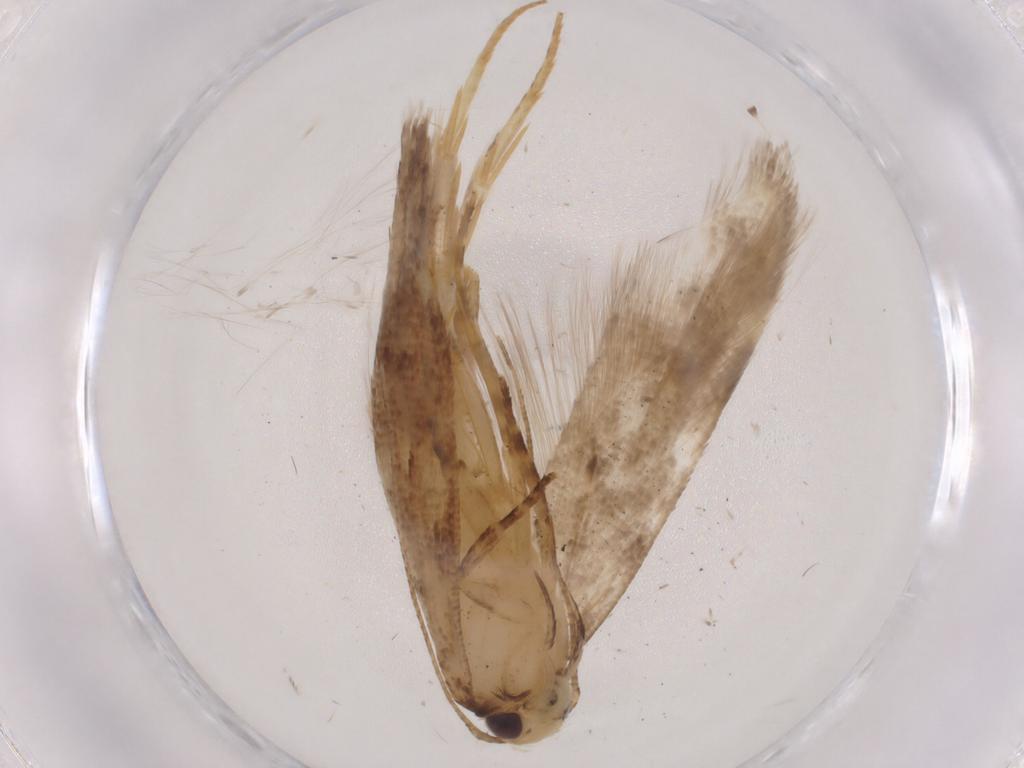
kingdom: Animalia
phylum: Arthropoda
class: Insecta
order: Lepidoptera
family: Gelechiidae
